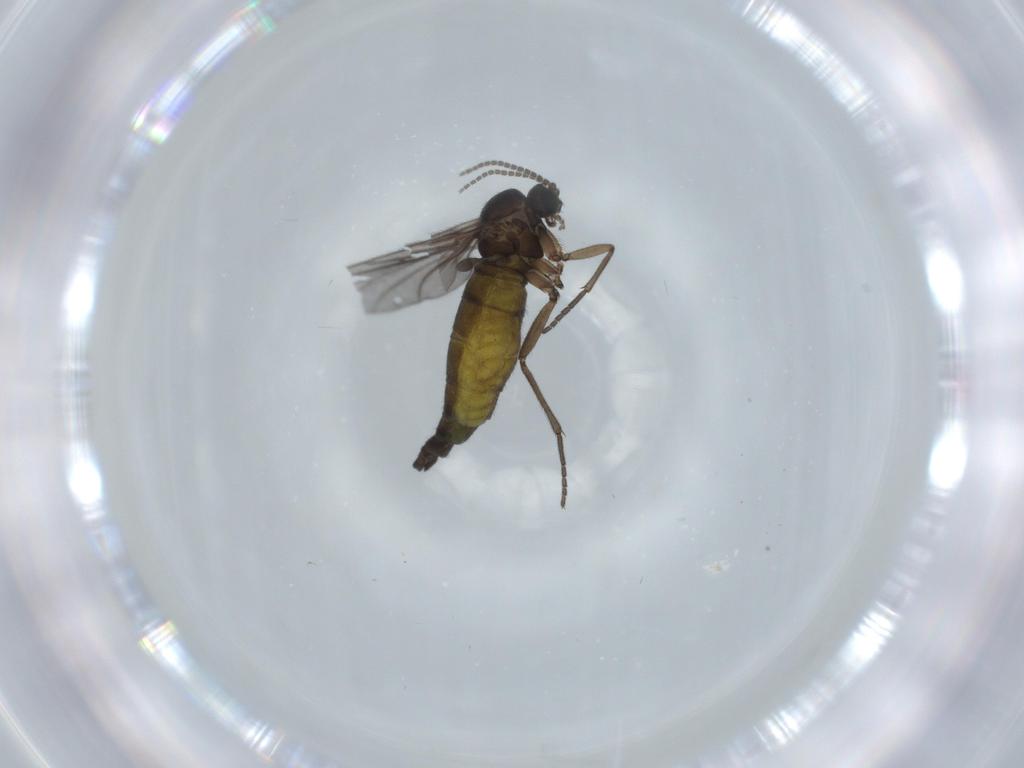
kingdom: Animalia
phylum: Arthropoda
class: Insecta
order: Diptera
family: Sciaridae
